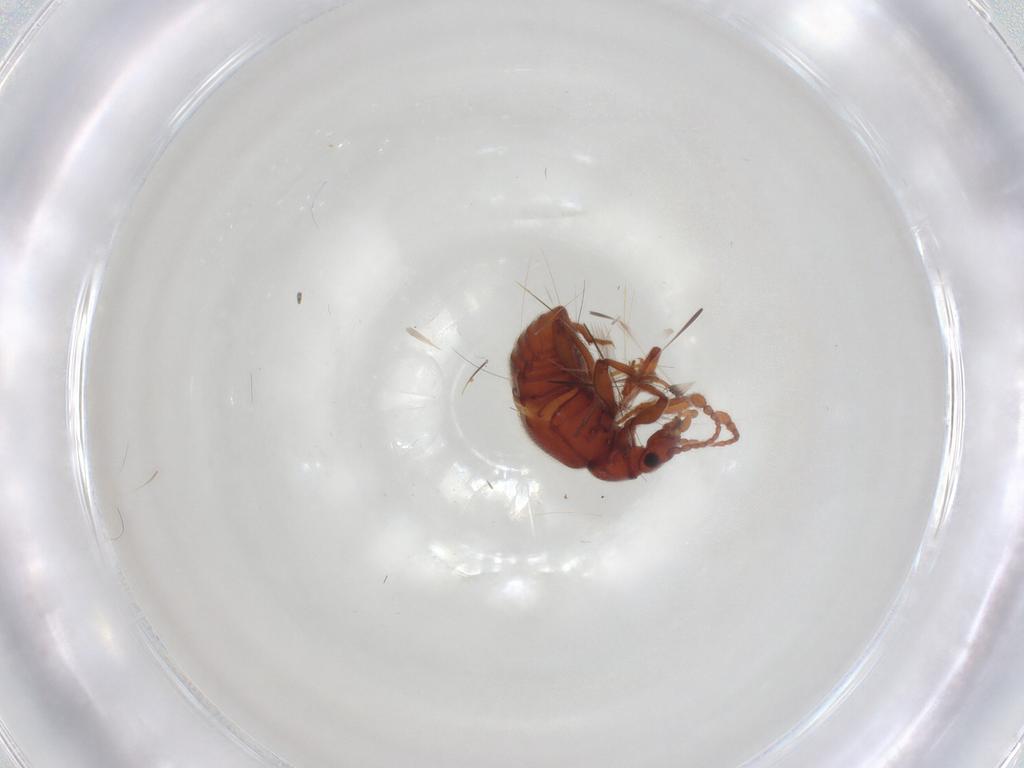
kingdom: Animalia
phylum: Arthropoda
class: Insecta
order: Coleoptera
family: Staphylinidae
